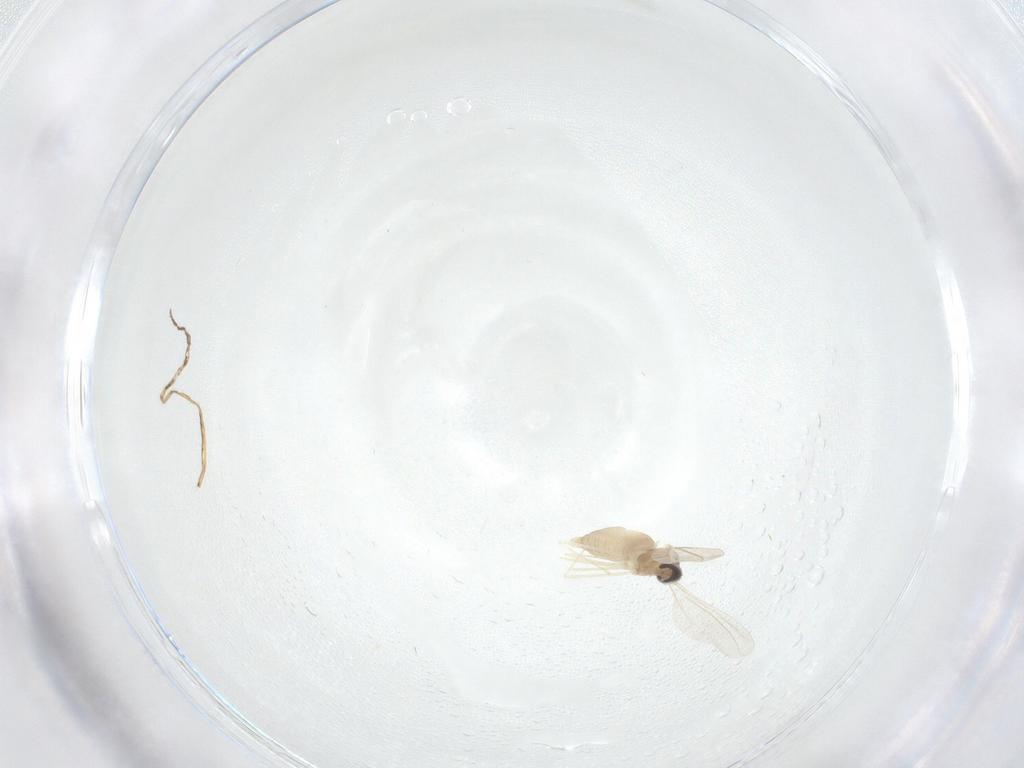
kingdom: Animalia
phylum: Arthropoda
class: Insecta
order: Diptera
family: Cecidomyiidae
